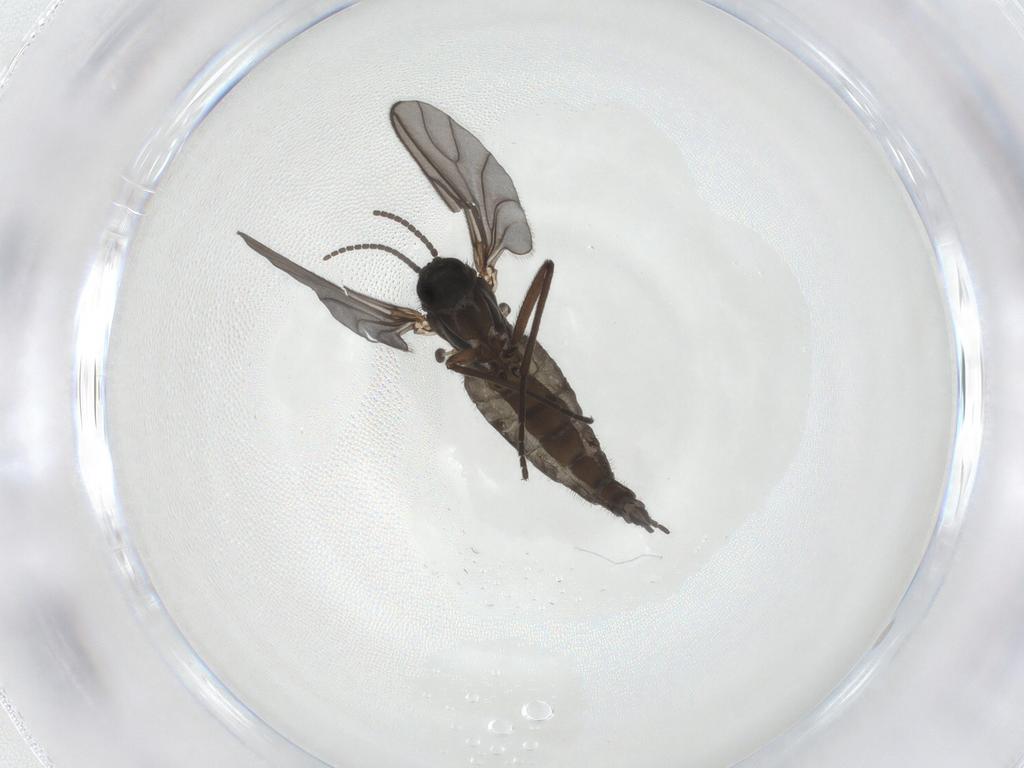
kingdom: Animalia
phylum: Arthropoda
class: Insecta
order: Diptera
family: Sciaridae
